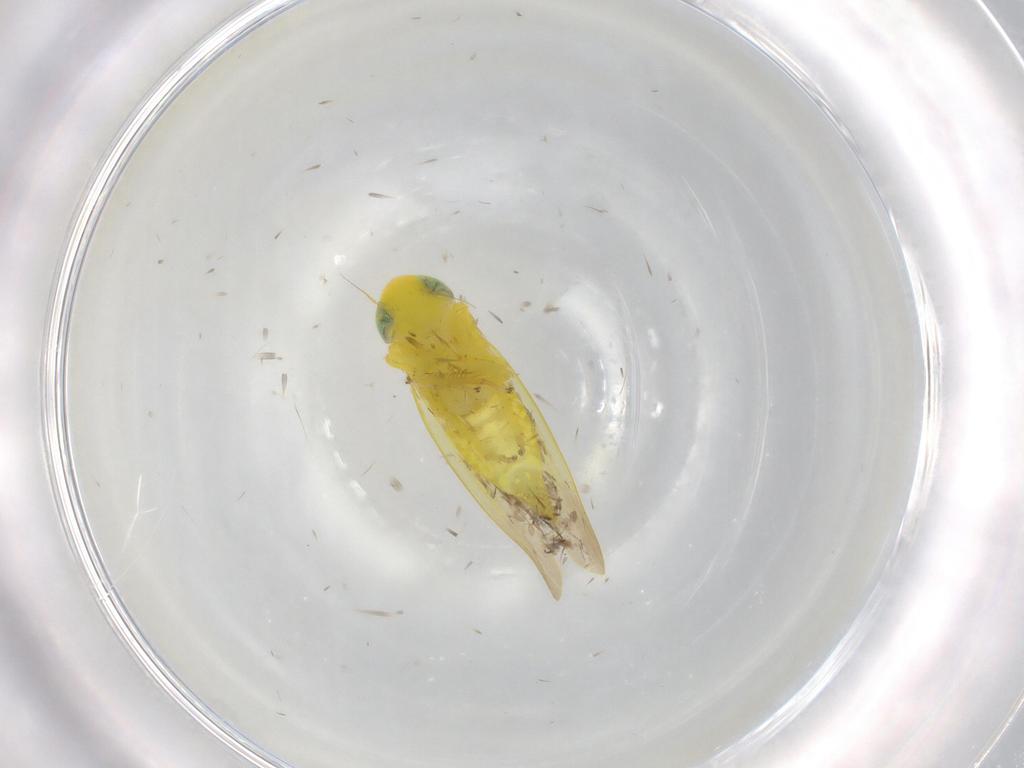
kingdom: Animalia
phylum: Arthropoda
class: Insecta
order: Hemiptera
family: Cicadellidae
